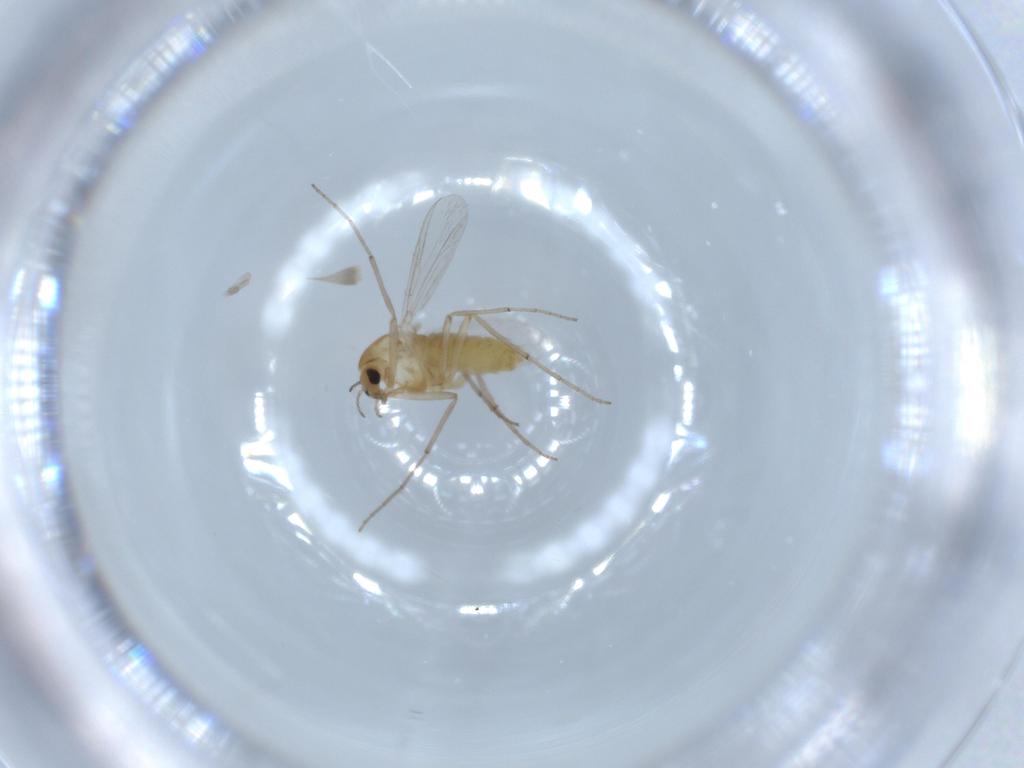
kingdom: Animalia
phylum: Arthropoda
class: Insecta
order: Diptera
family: Chironomidae
